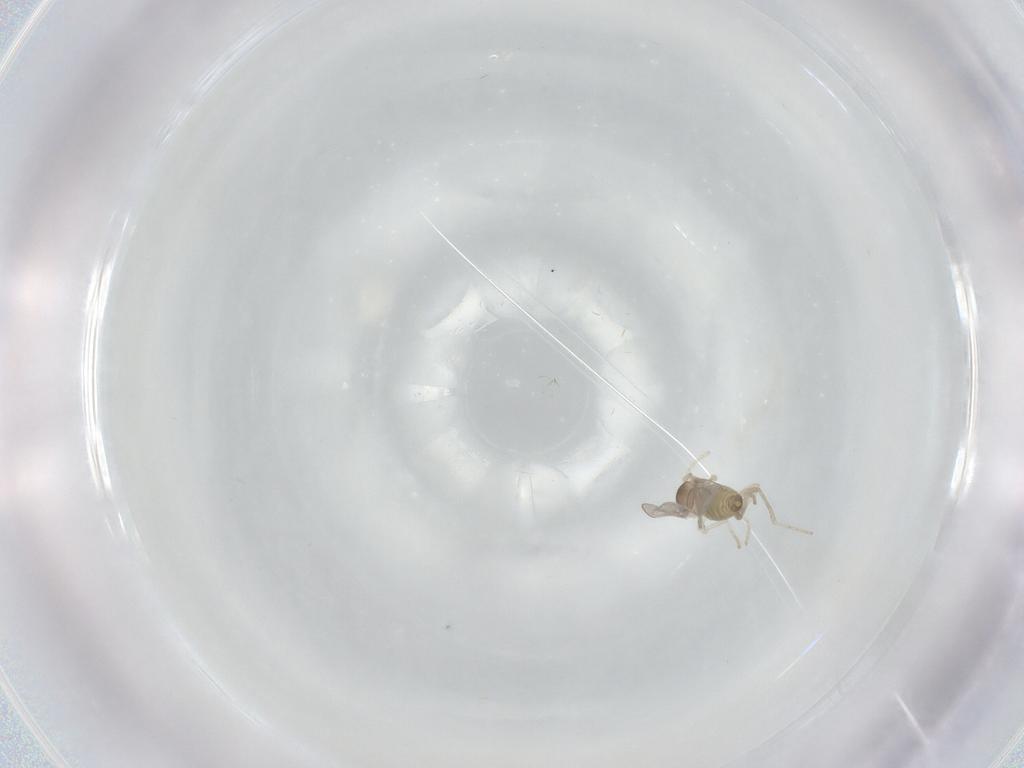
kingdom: Animalia
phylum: Arthropoda
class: Insecta
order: Diptera
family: Cecidomyiidae
